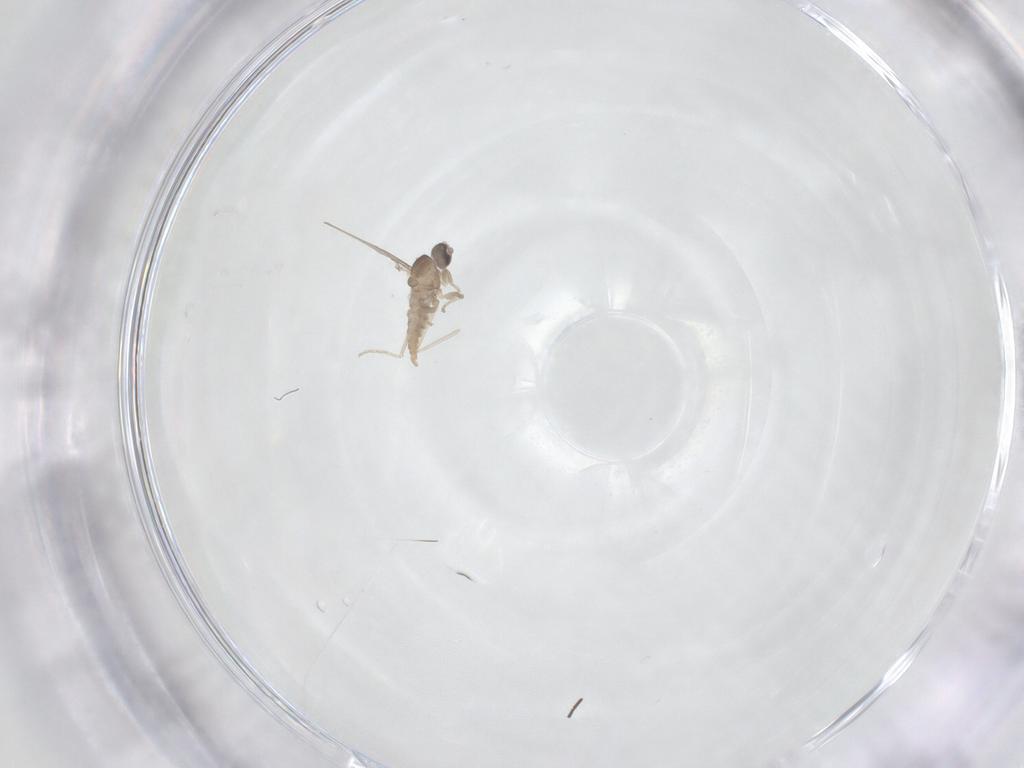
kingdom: Animalia
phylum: Arthropoda
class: Insecta
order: Diptera
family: Cecidomyiidae
